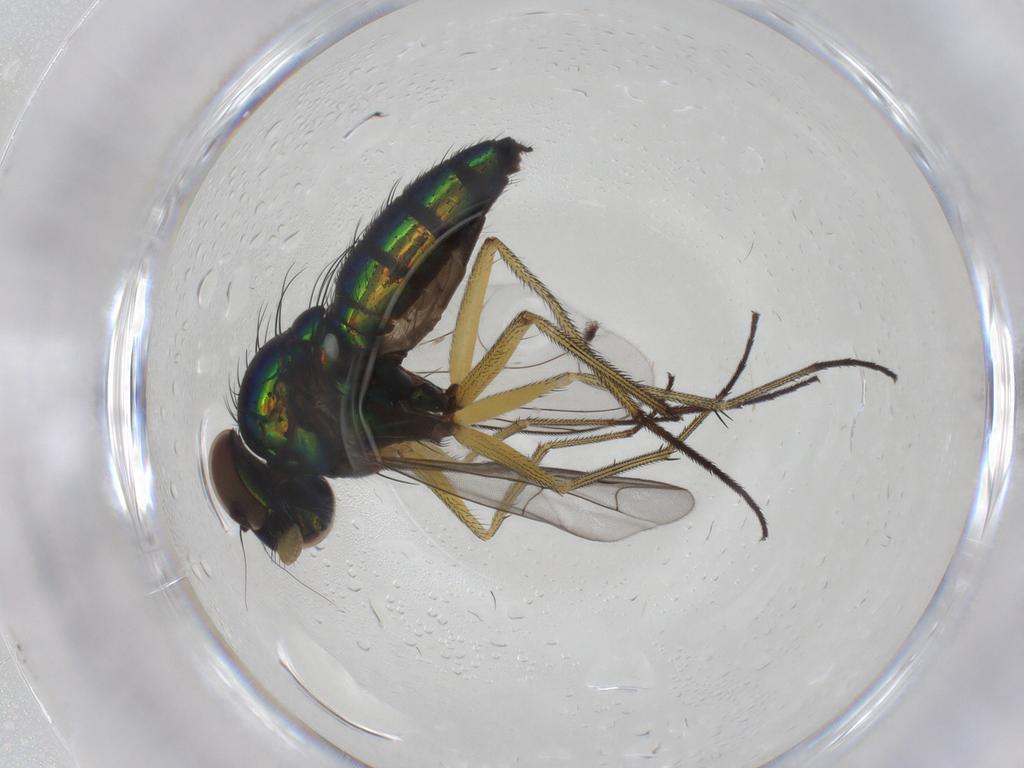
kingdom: Animalia
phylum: Arthropoda
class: Insecta
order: Diptera
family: Dolichopodidae
